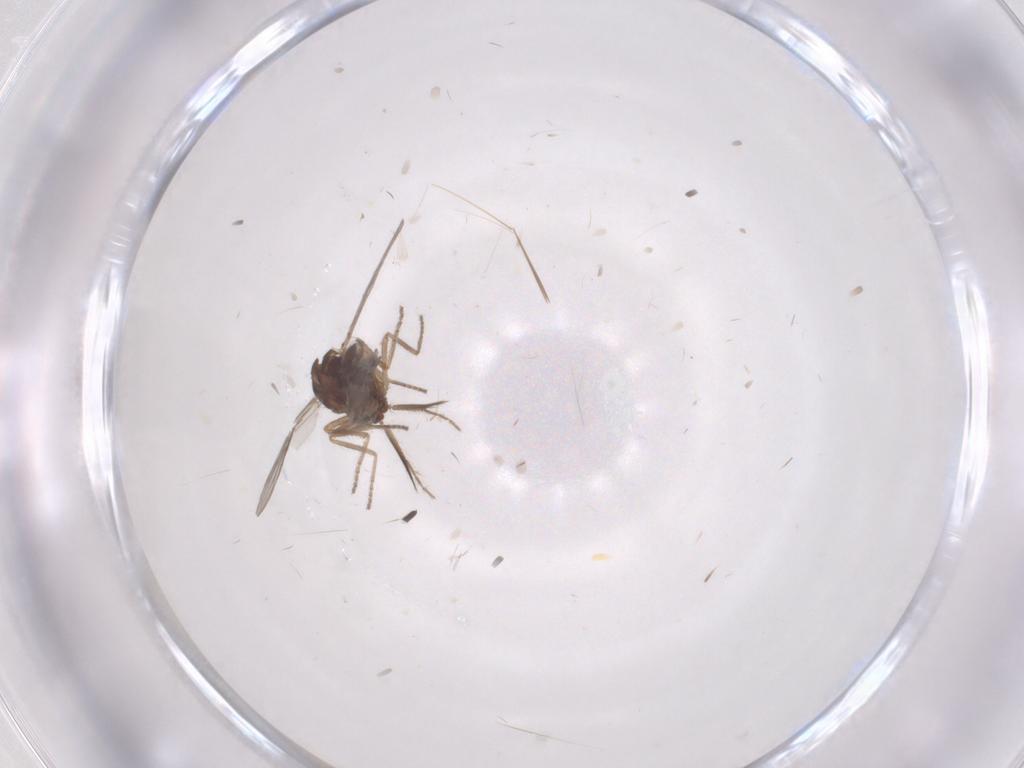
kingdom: Animalia
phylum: Arthropoda
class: Insecta
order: Diptera
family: Ceratopogonidae
